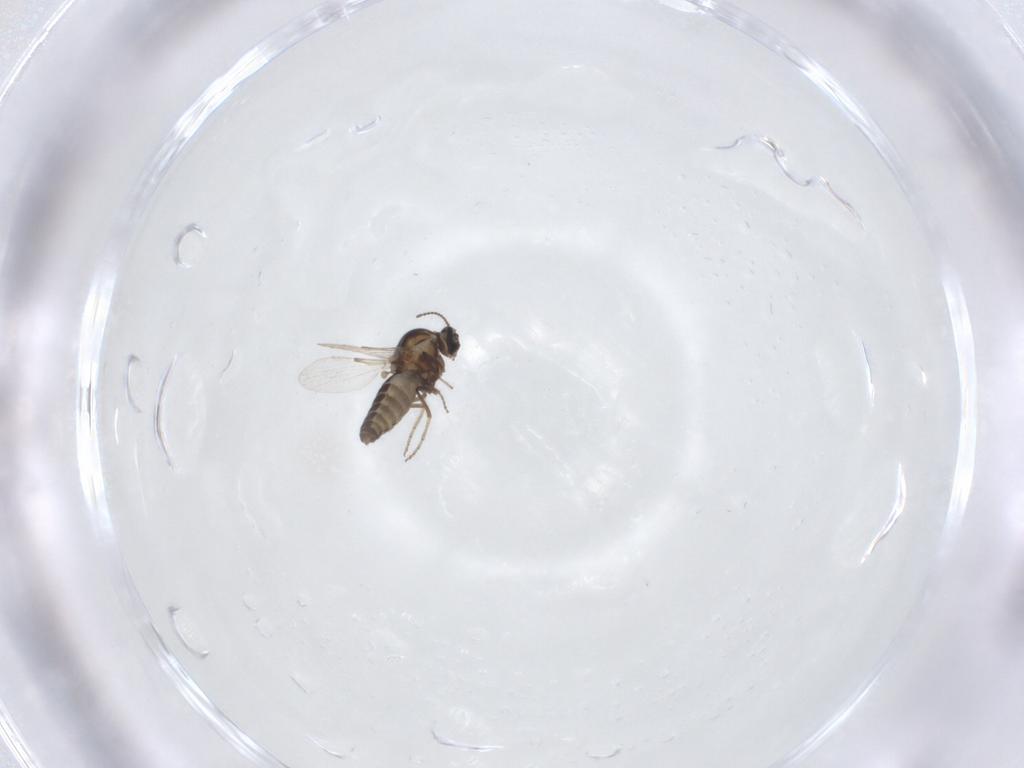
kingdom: Animalia
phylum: Arthropoda
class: Insecta
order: Diptera
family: Ceratopogonidae
